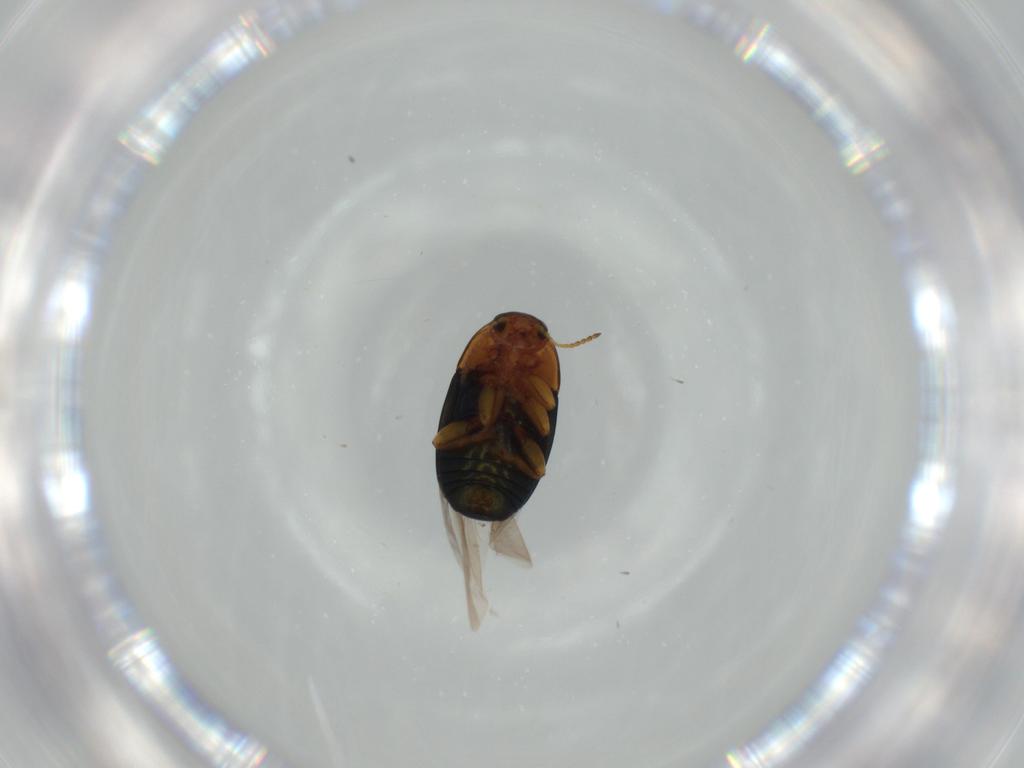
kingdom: Animalia
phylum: Arthropoda
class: Insecta
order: Coleoptera
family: Chrysomelidae
